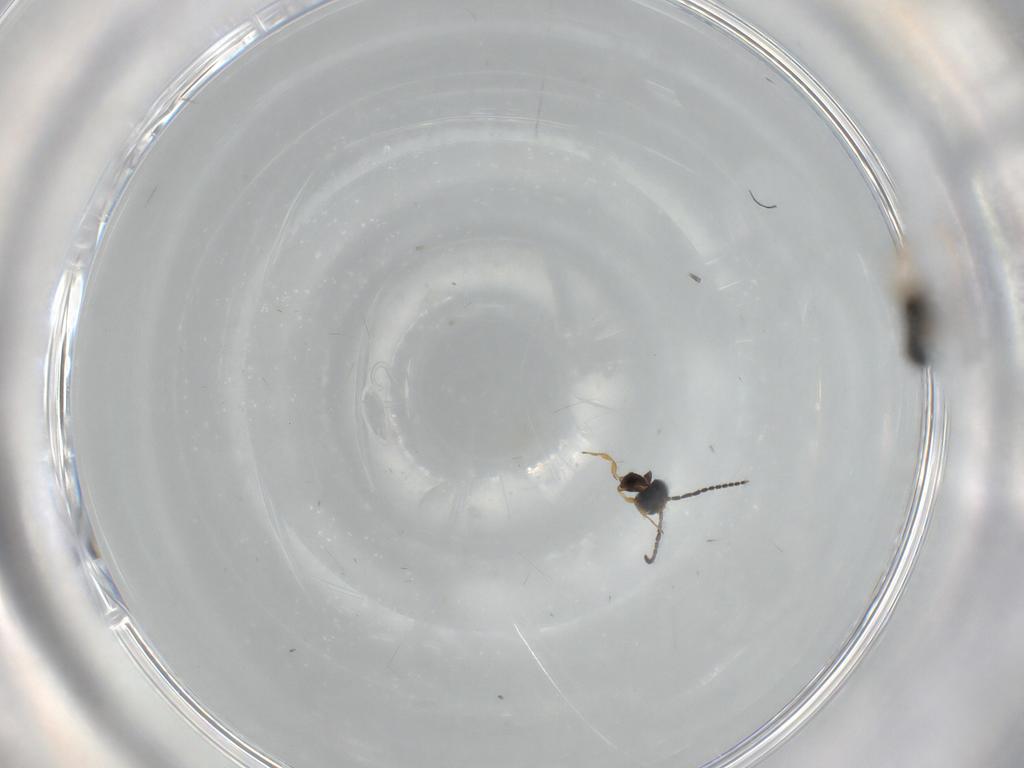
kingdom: Animalia
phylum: Arthropoda
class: Insecta
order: Hymenoptera
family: Scelionidae
